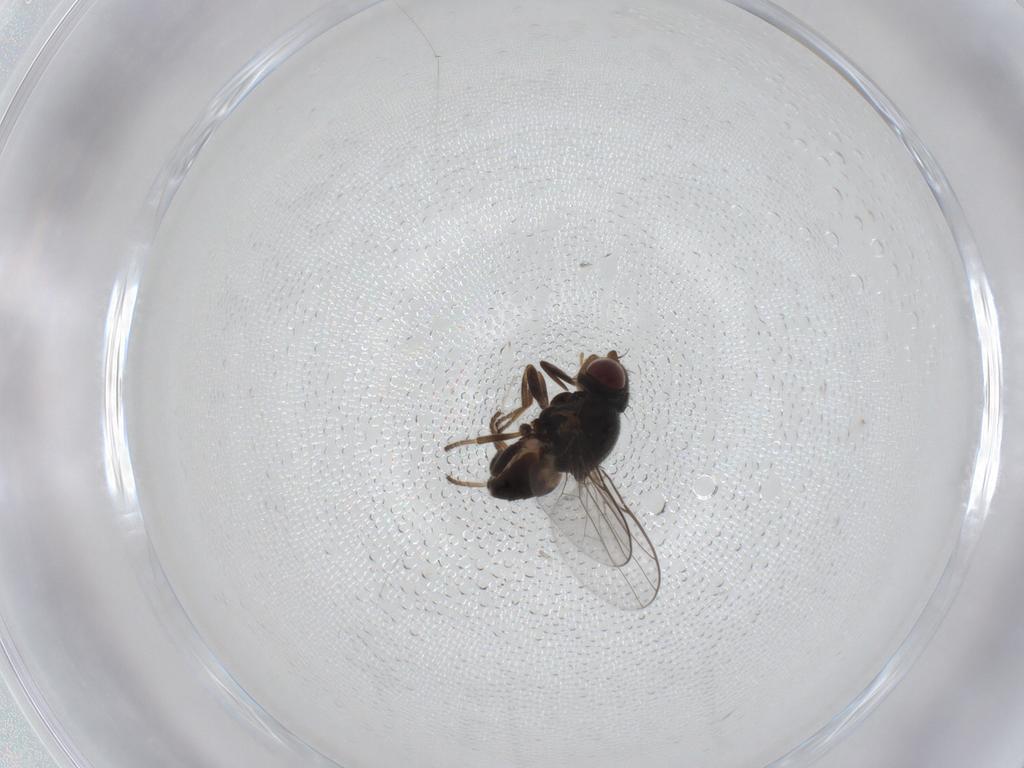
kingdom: Animalia
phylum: Arthropoda
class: Insecta
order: Diptera
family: Chloropidae
